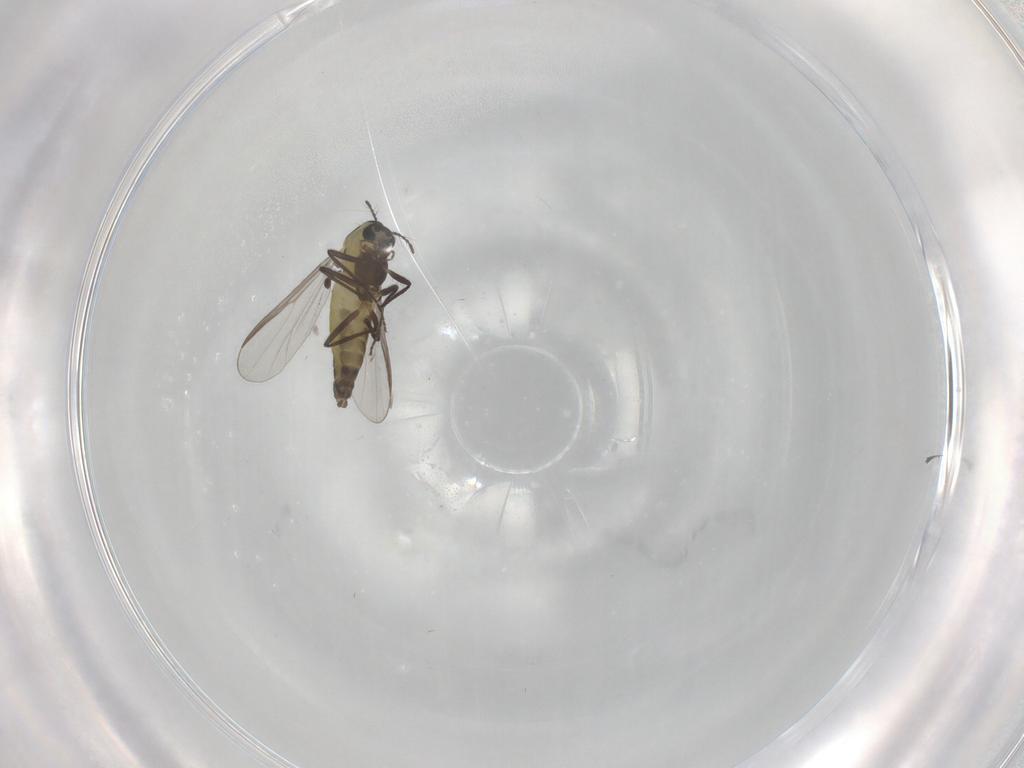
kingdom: Animalia
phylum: Arthropoda
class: Insecta
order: Diptera
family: Chironomidae
